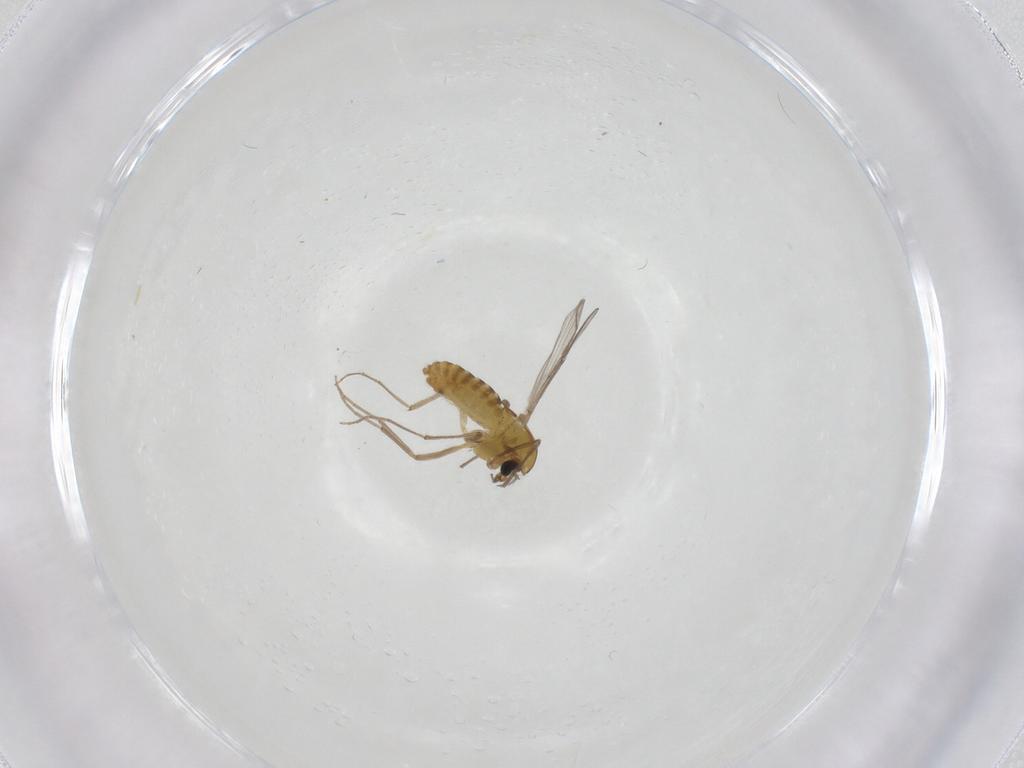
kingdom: Animalia
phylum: Arthropoda
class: Insecta
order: Diptera
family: Chironomidae
